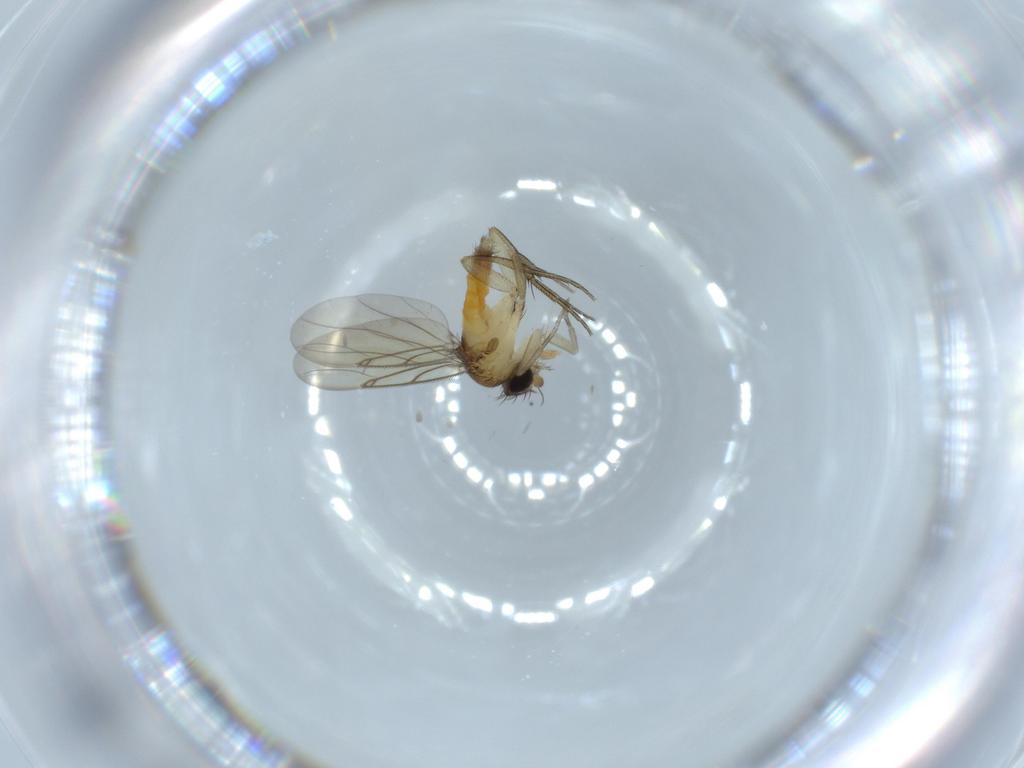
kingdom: Animalia
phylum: Arthropoda
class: Insecta
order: Diptera
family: Phoridae
